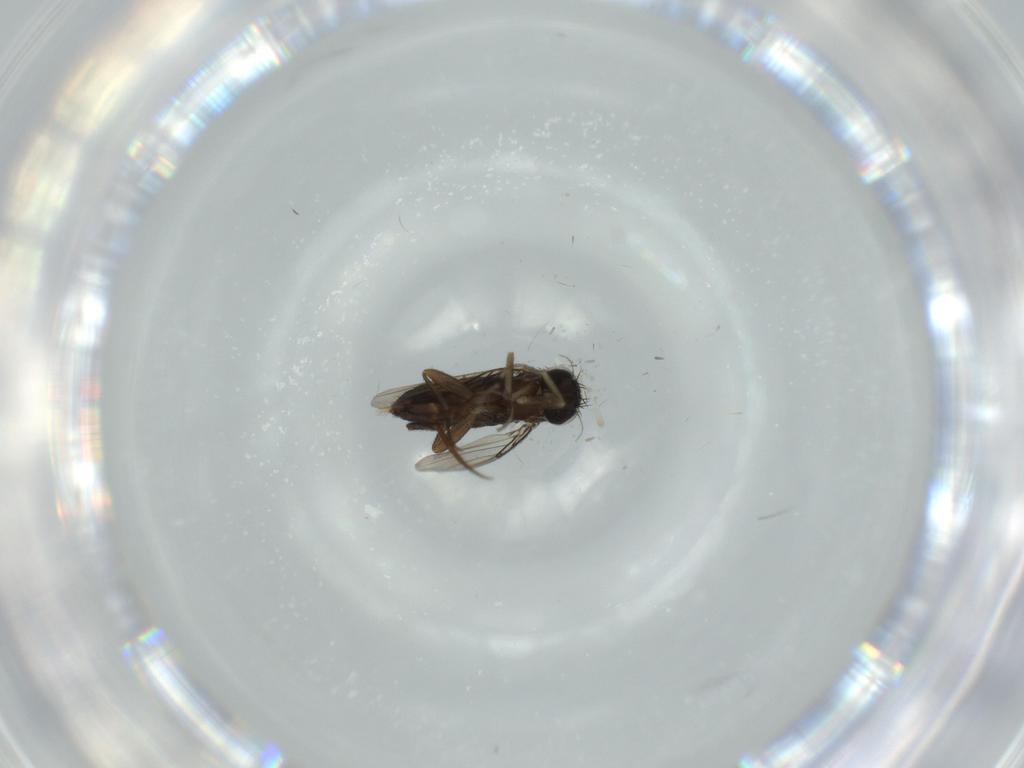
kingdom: Animalia
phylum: Arthropoda
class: Insecta
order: Diptera
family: Phoridae
